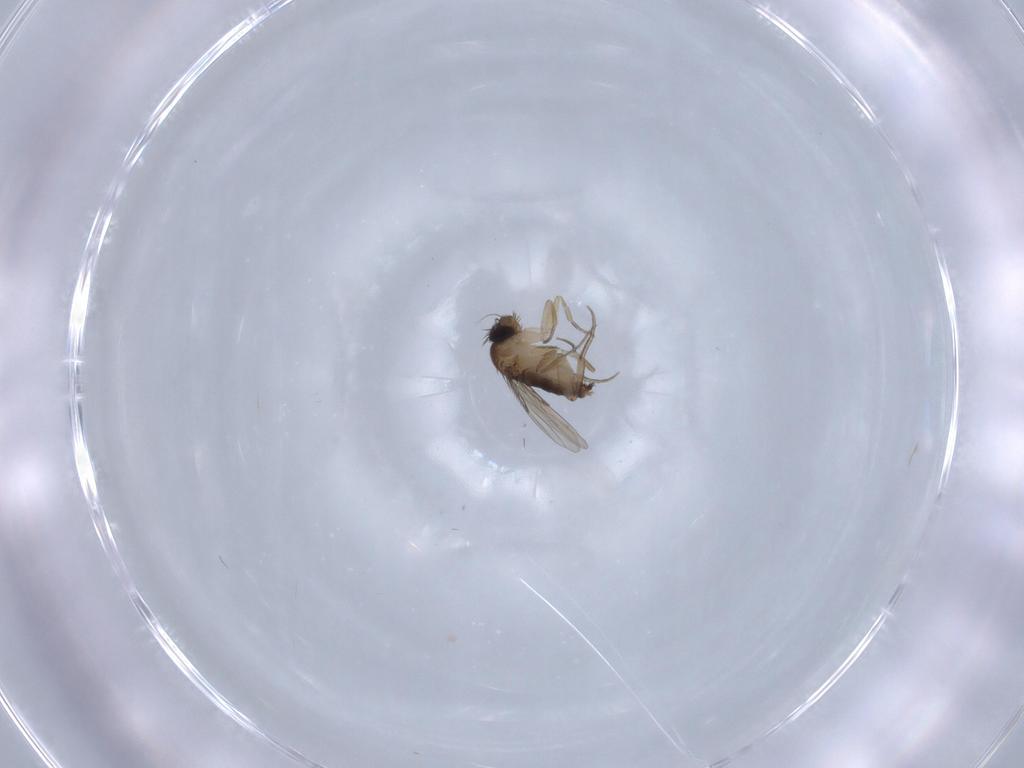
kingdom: Animalia
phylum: Arthropoda
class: Insecta
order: Diptera
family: Phoridae
